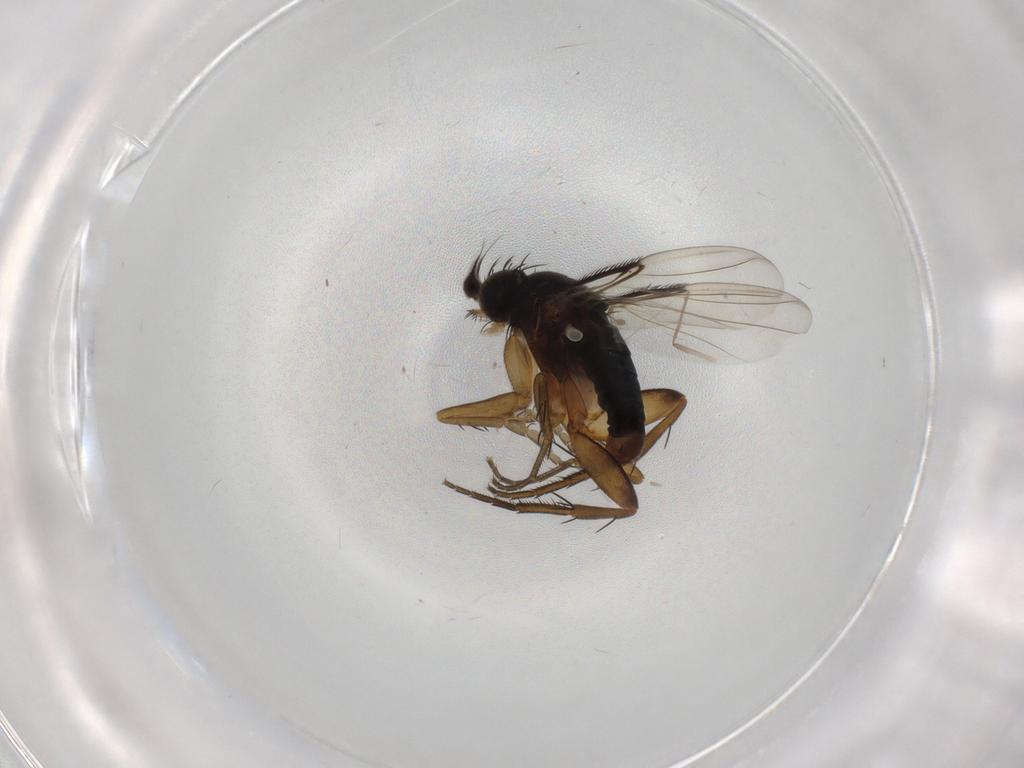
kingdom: Animalia
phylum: Arthropoda
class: Insecta
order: Diptera
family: Phoridae
